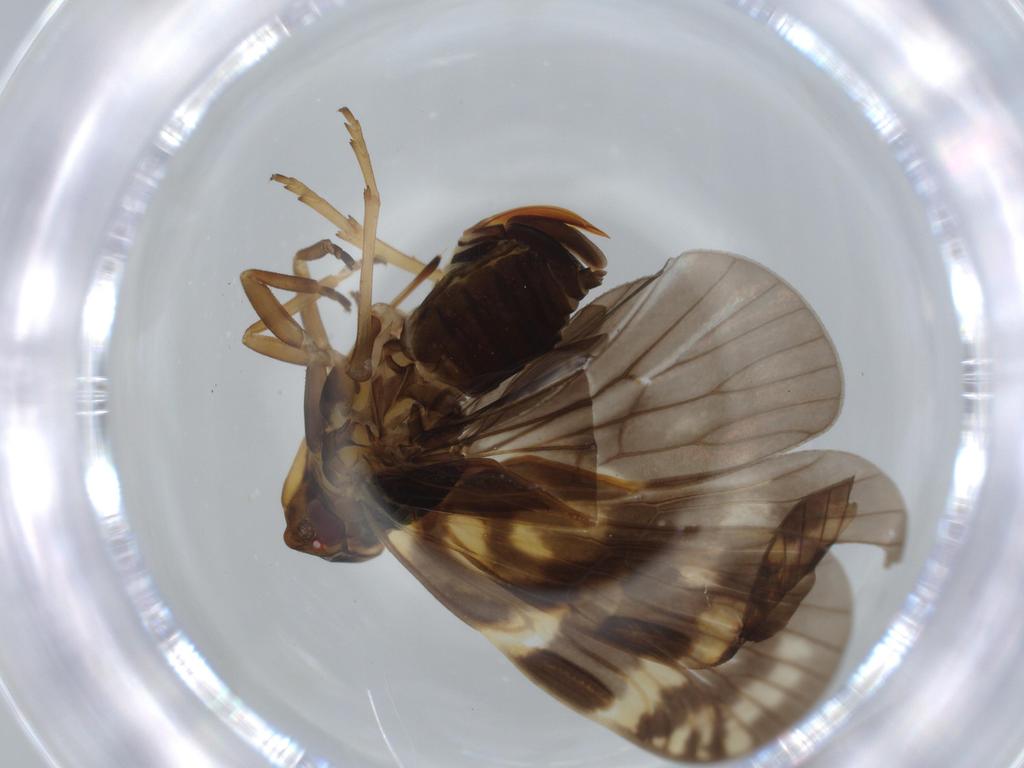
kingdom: Animalia
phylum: Arthropoda
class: Insecta
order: Hemiptera
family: Cixiidae
